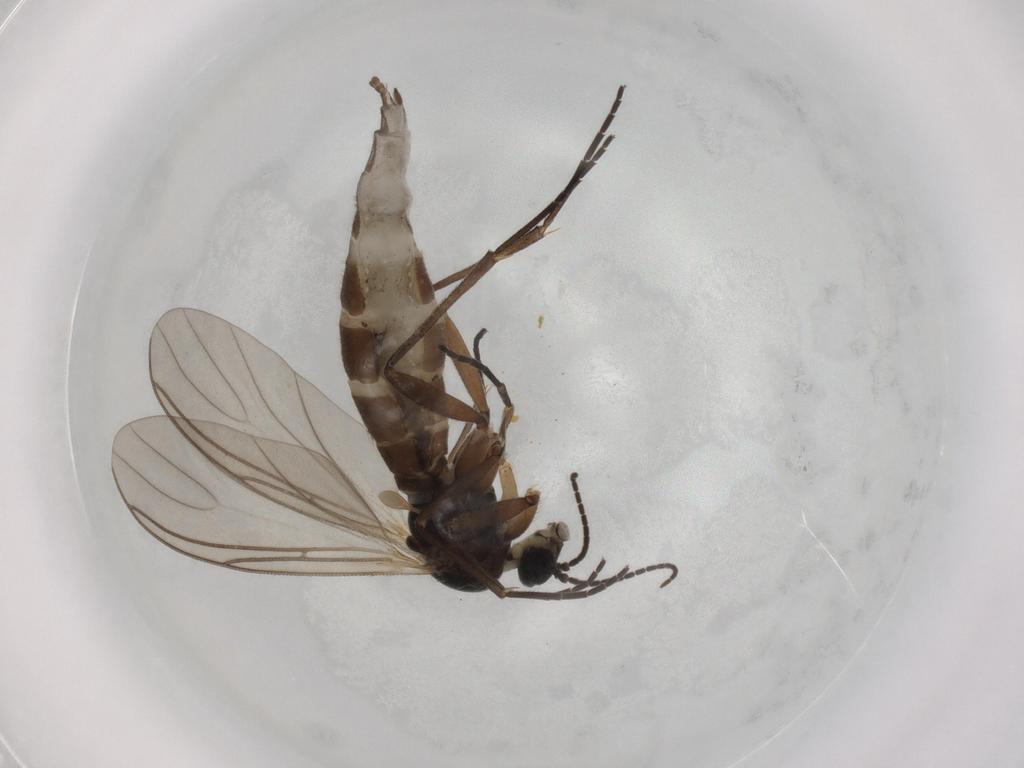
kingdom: Animalia
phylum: Arthropoda
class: Insecta
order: Diptera
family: Sciaridae
